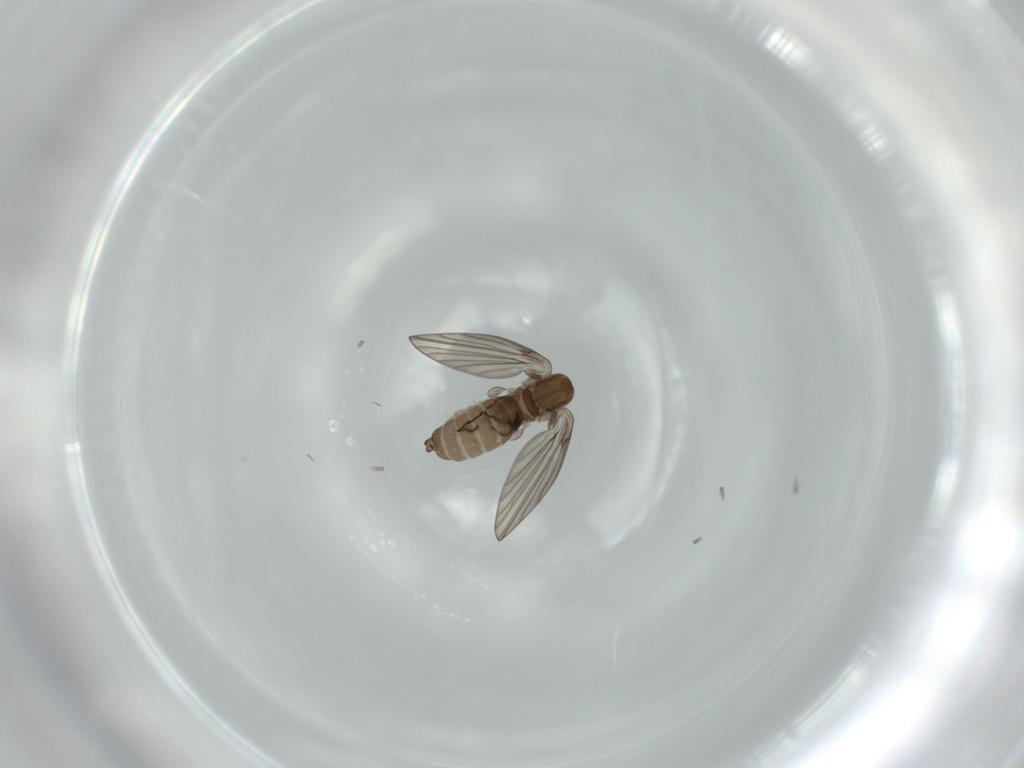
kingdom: Animalia
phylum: Arthropoda
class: Insecta
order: Diptera
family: Psychodidae
